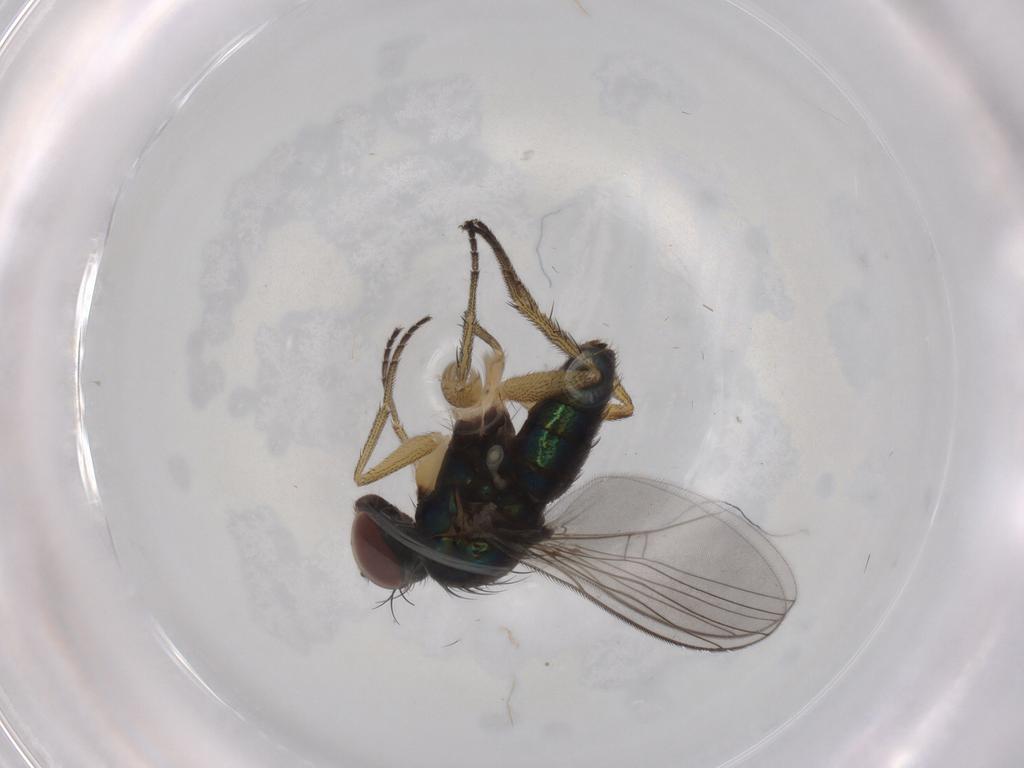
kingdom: Animalia
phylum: Arthropoda
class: Insecta
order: Diptera
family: Dolichopodidae
